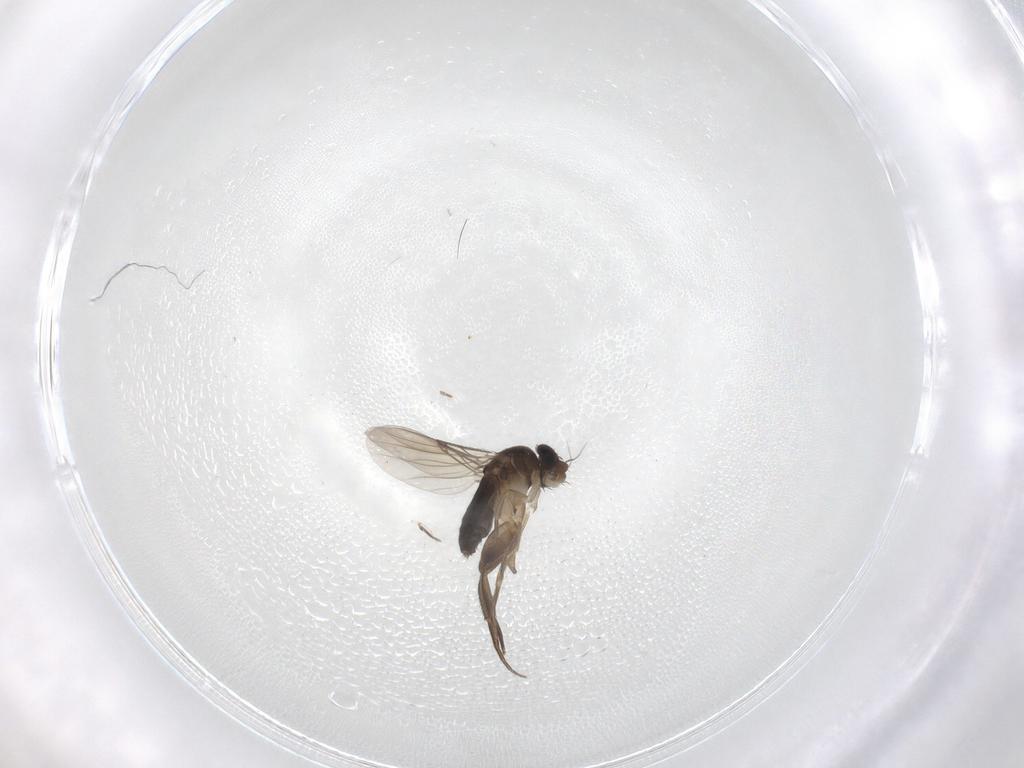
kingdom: Animalia
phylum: Arthropoda
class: Insecta
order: Diptera
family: Phoridae
